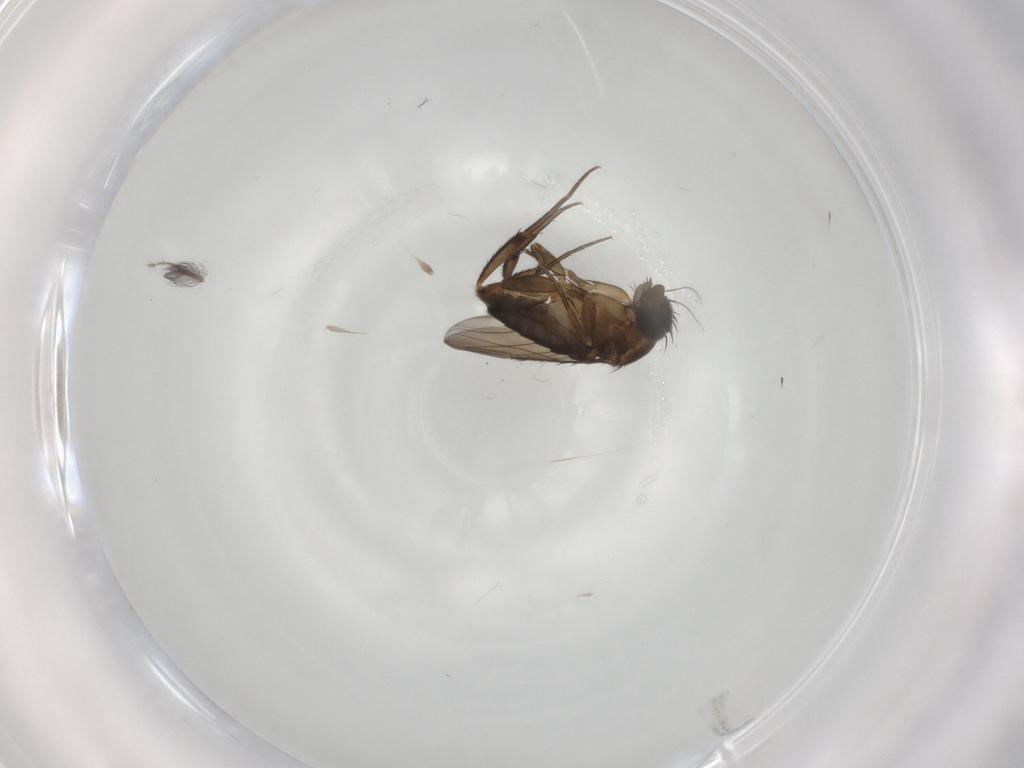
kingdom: Animalia
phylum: Arthropoda
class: Insecta
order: Diptera
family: Phoridae
